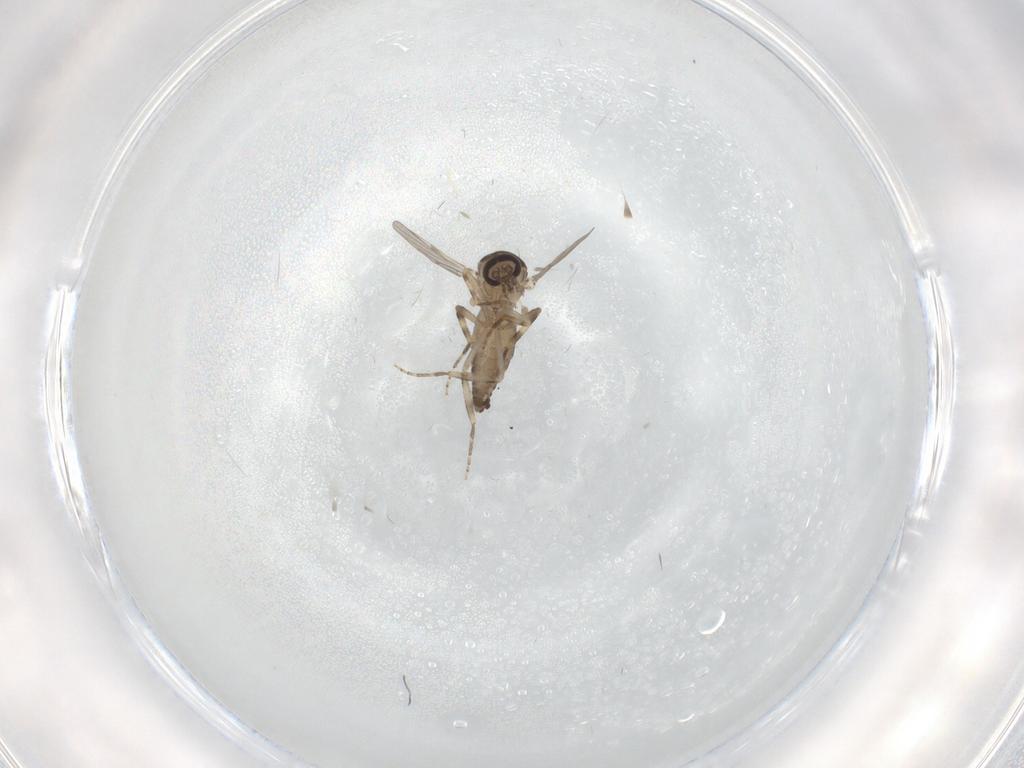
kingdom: Animalia
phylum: Arthropoda
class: Insecta
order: Diptera
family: Ceratopogonidae
